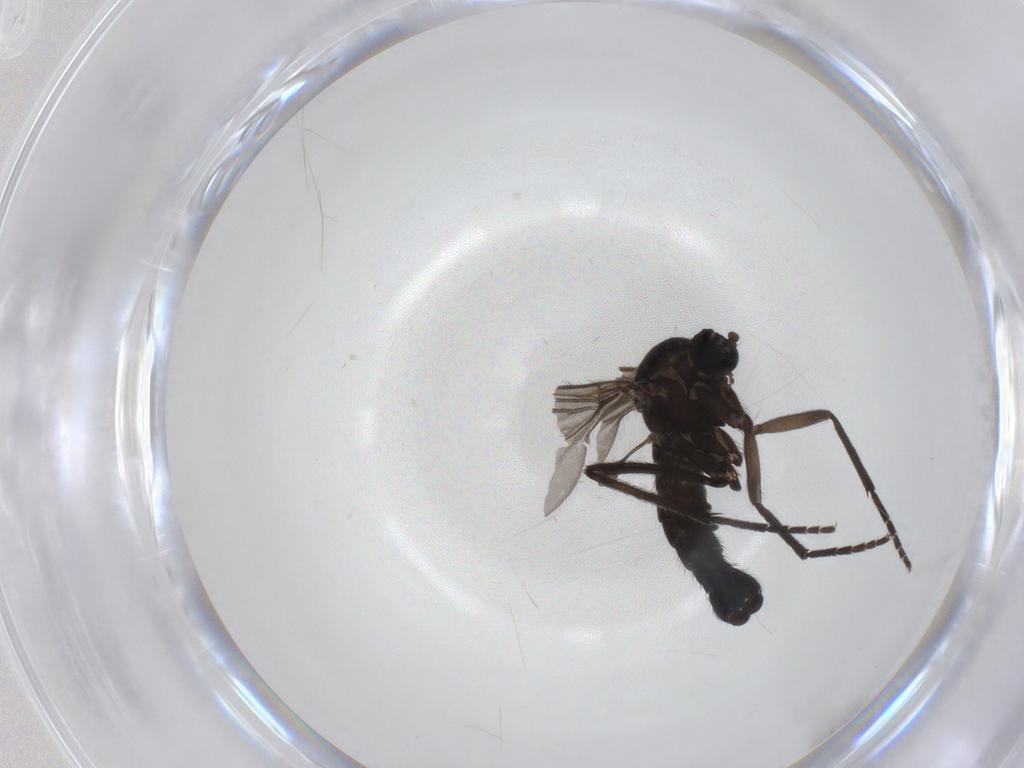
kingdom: Animalia
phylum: Arthropoda
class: Insecta
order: Diptera
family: Sciaridae
